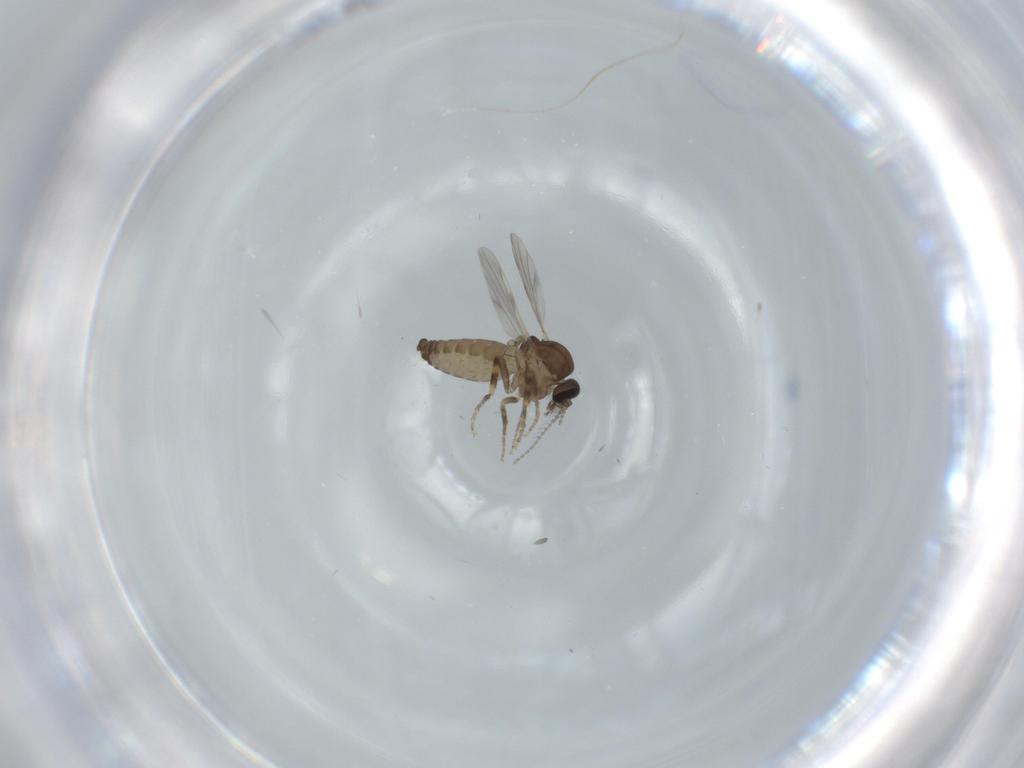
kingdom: Animalia
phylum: Arthropoda
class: Insecta
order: Diptera
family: Ceratopogonidae
